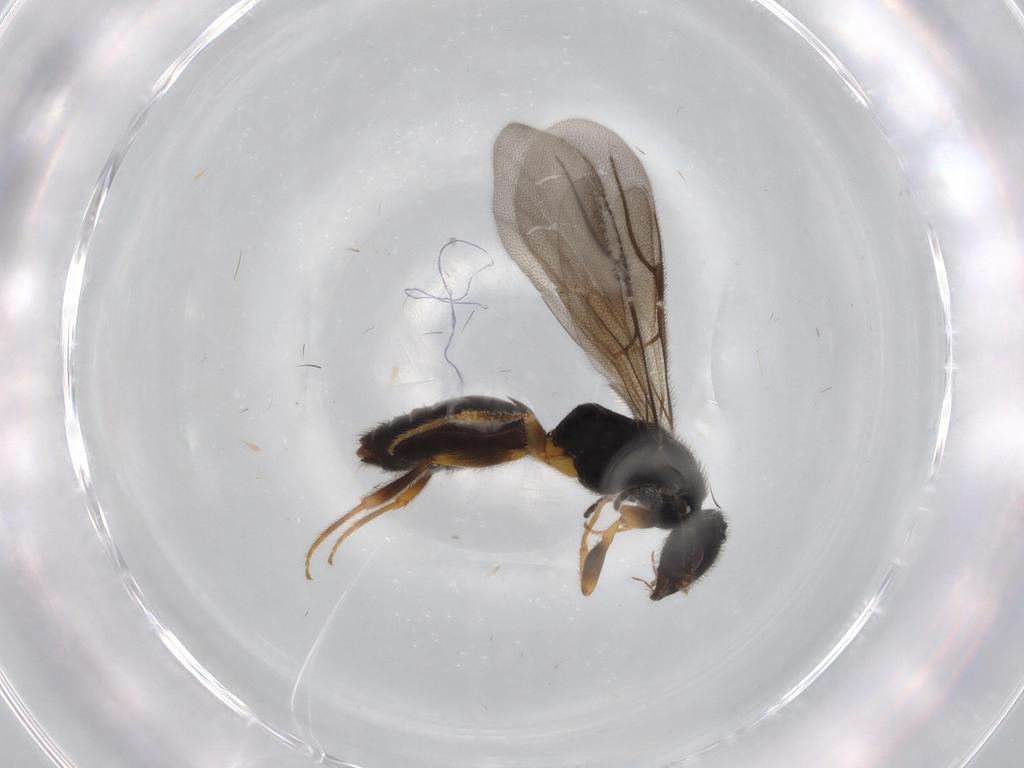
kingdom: Animalia
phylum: Arthropoda
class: Insecta
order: Hymenoptera
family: Bethylidae
